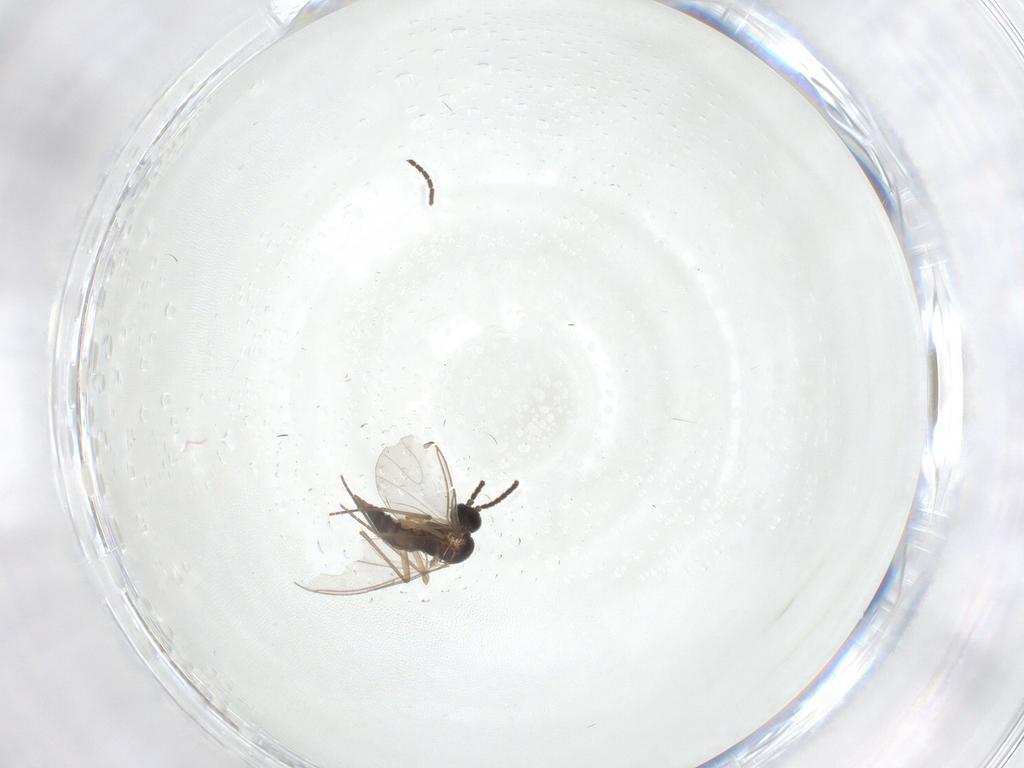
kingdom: Animalia
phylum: Arthropoda
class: Insecta
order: Diptera
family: Sciaridae
